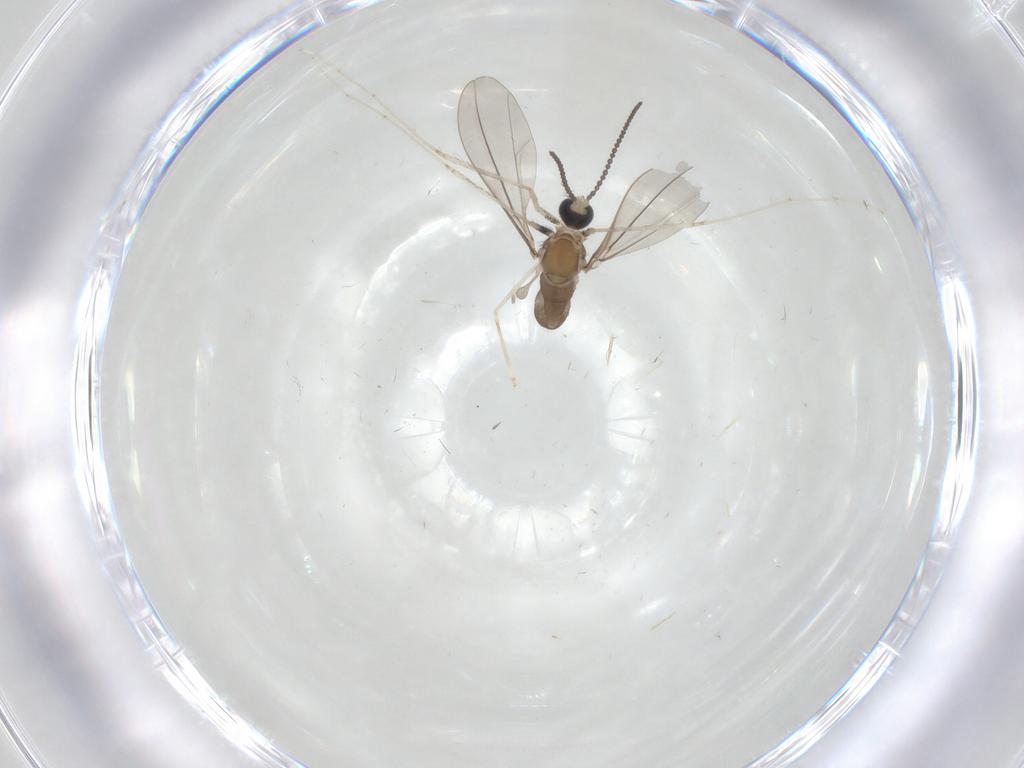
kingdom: Animalia
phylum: Arthropoda
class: Insecta
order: Diptera
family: Cecidomyiidae
